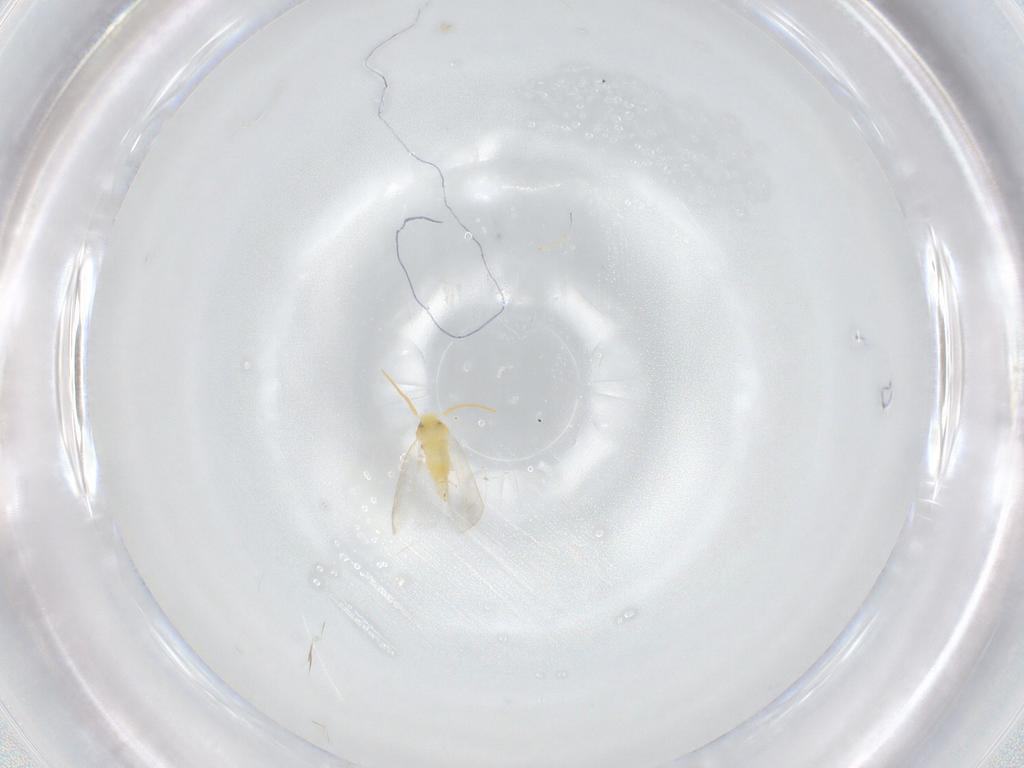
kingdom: Animalia
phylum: Arthropoda
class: Insecta
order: Hemiptera
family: Aleyrodidae
